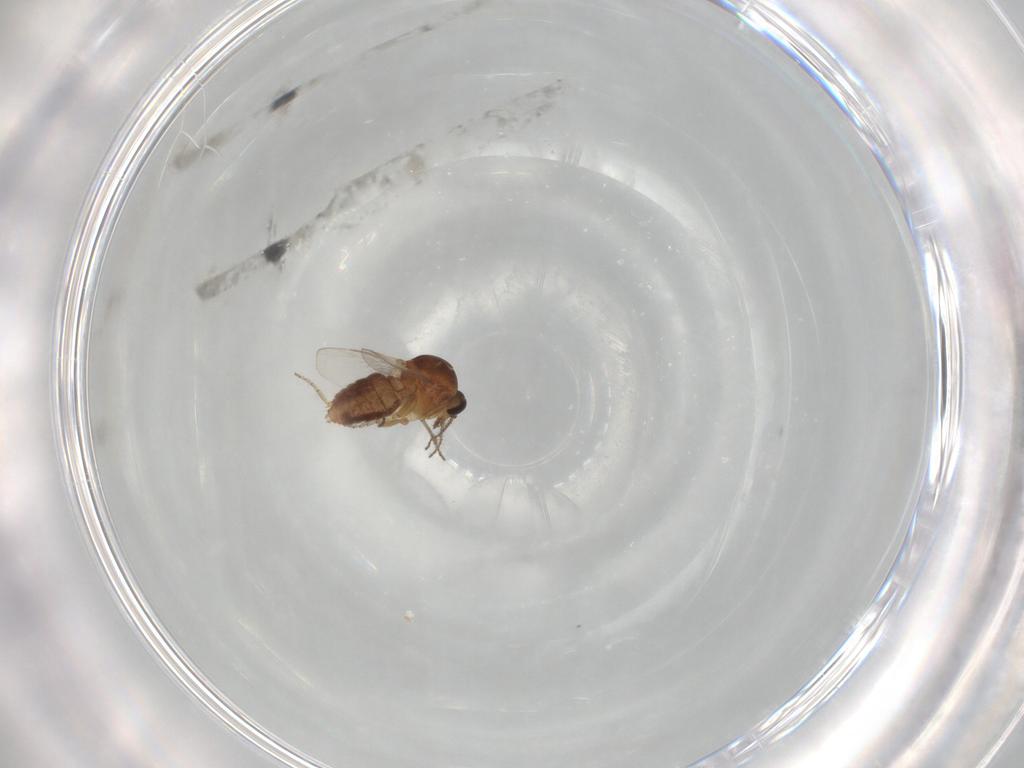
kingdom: Animalia
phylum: Arthropoda
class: Insecta
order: Diptera
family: Ceratopogonidae
